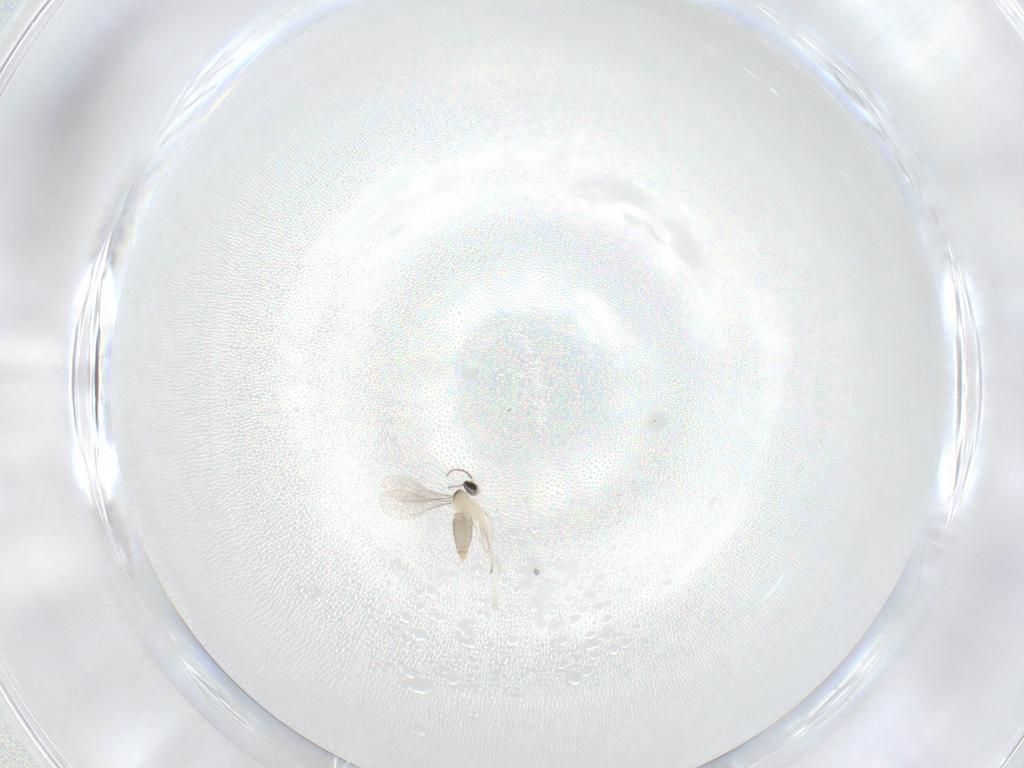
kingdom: Animalia
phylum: Arthropoda
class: Insecta
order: Diptera
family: Cecidomyiidae
